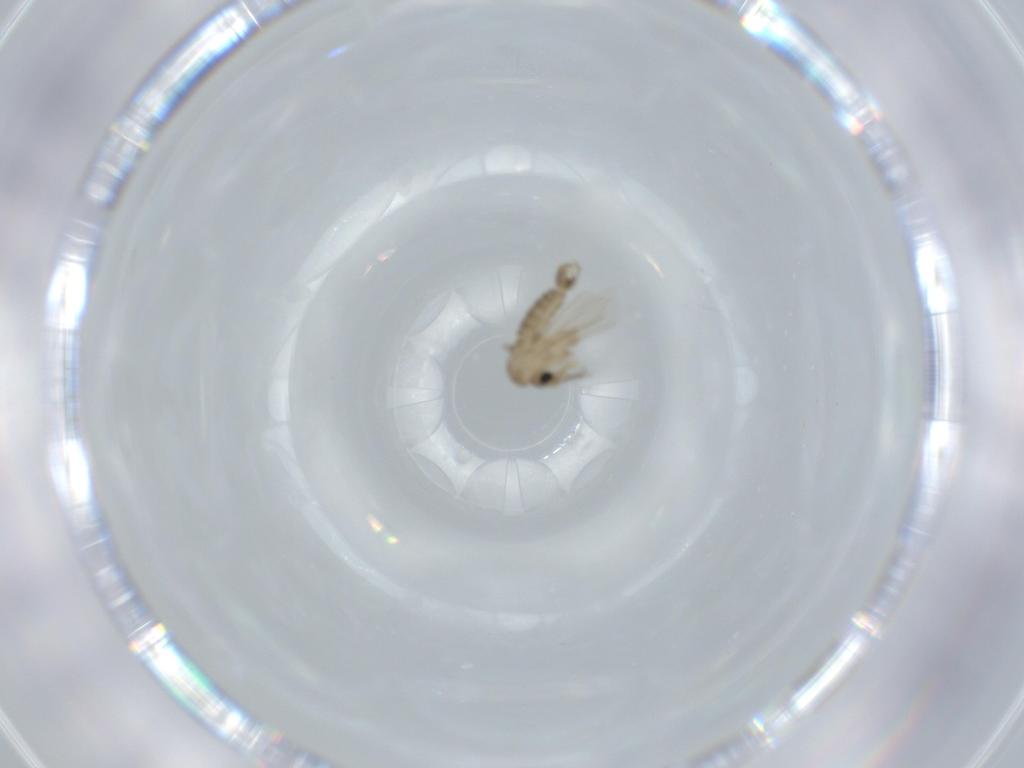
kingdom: Animalia
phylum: Arthropoda
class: Insecta
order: Diptera
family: Psychodidae
